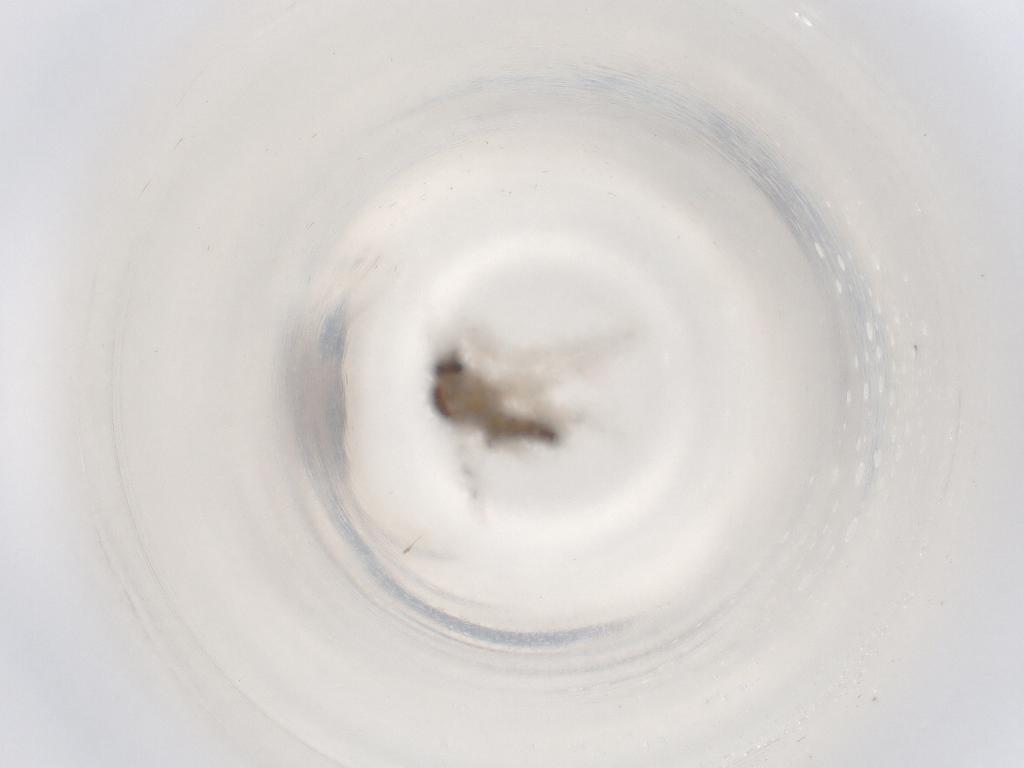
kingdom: Animalia
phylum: Arthropoda
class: Insecta
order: Diptera
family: Ceratopogonidae
